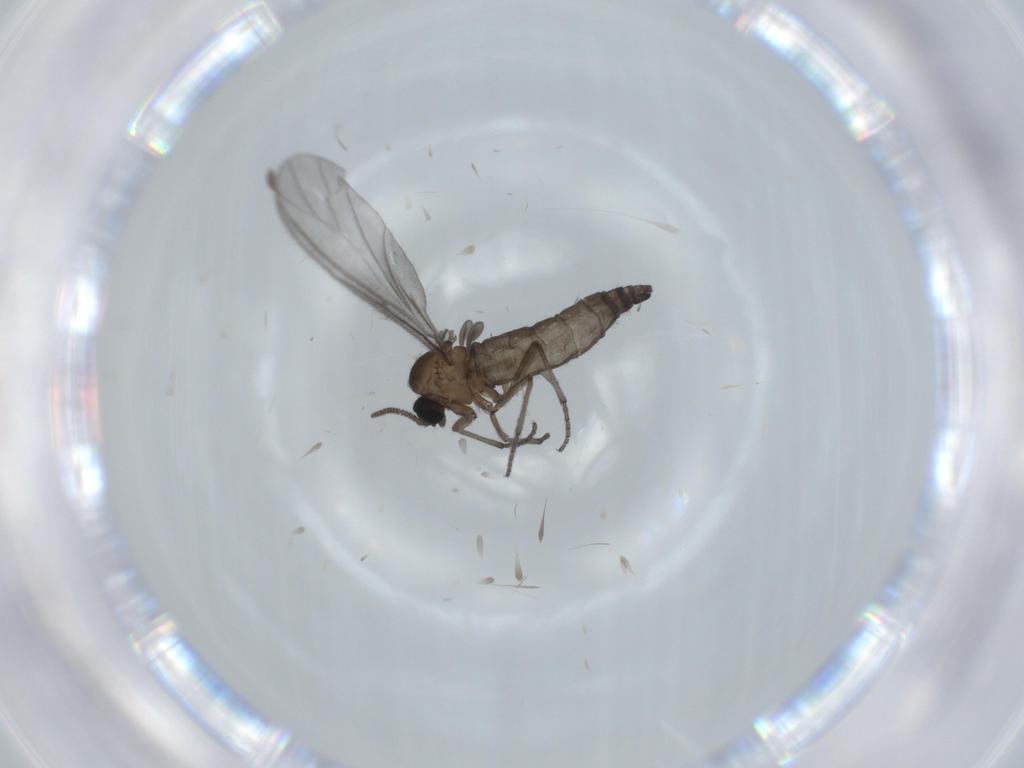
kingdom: Animalia
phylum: Arthropoda
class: Insecta
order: Diptera
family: Sciaridae
